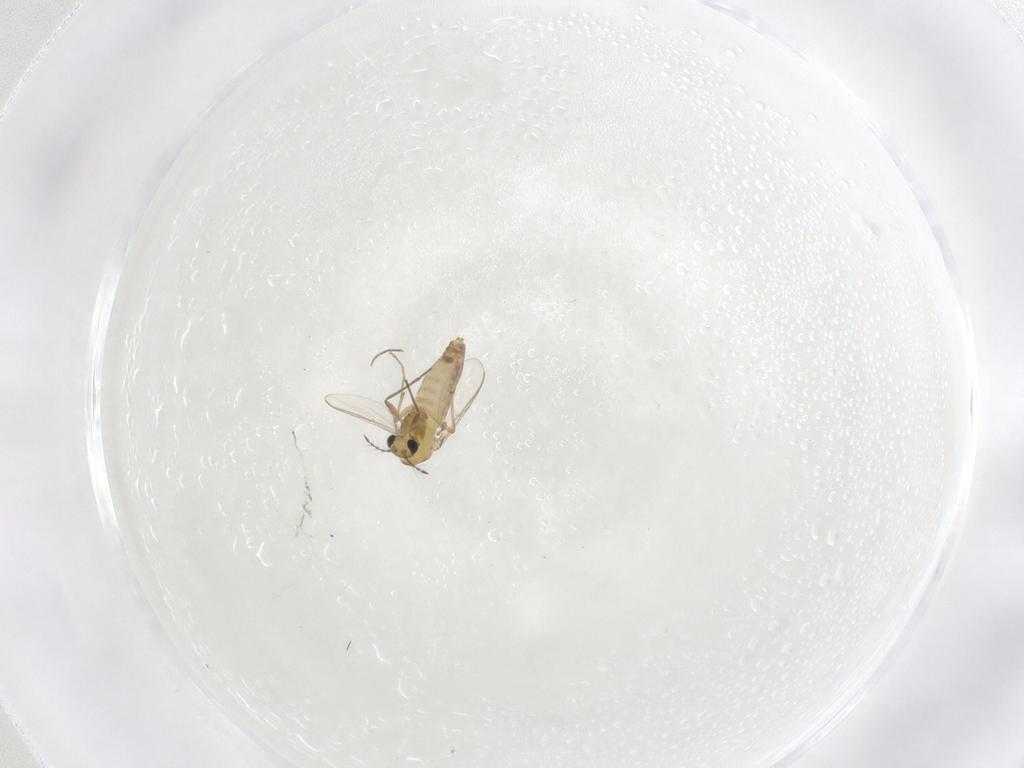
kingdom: Animalia
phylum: Arthropoda
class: Insecta
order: Diptera
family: Chironomidae
